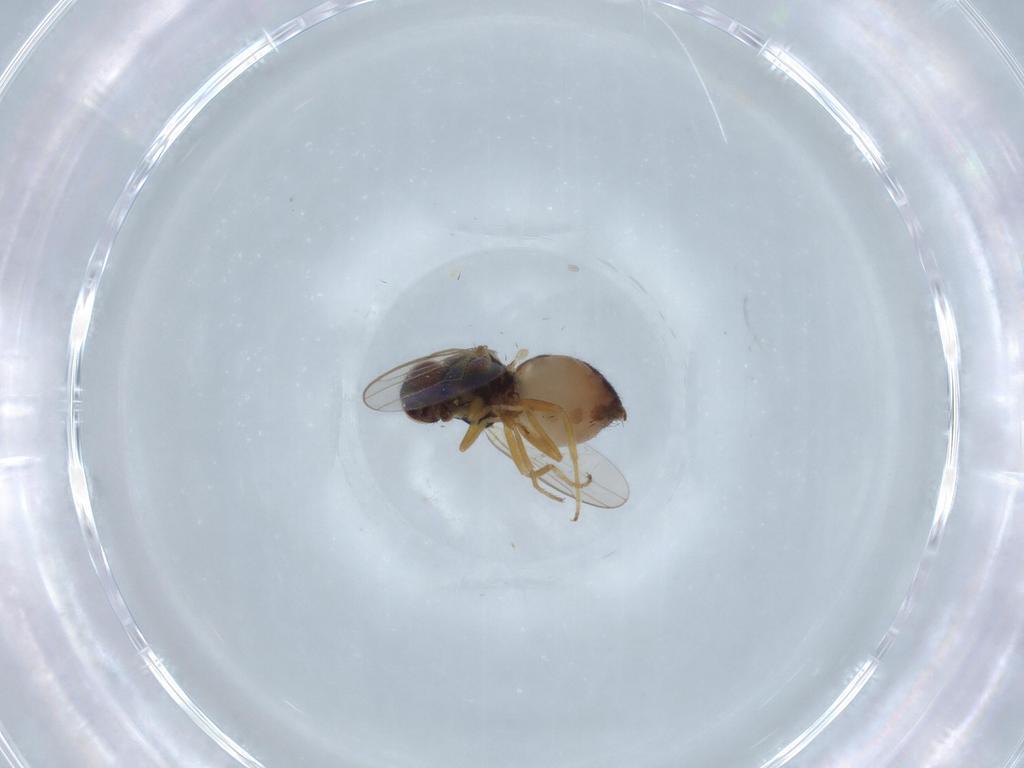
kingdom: Animalia
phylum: Arthropoda
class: Insecta
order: Diptera
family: Chloropidae
